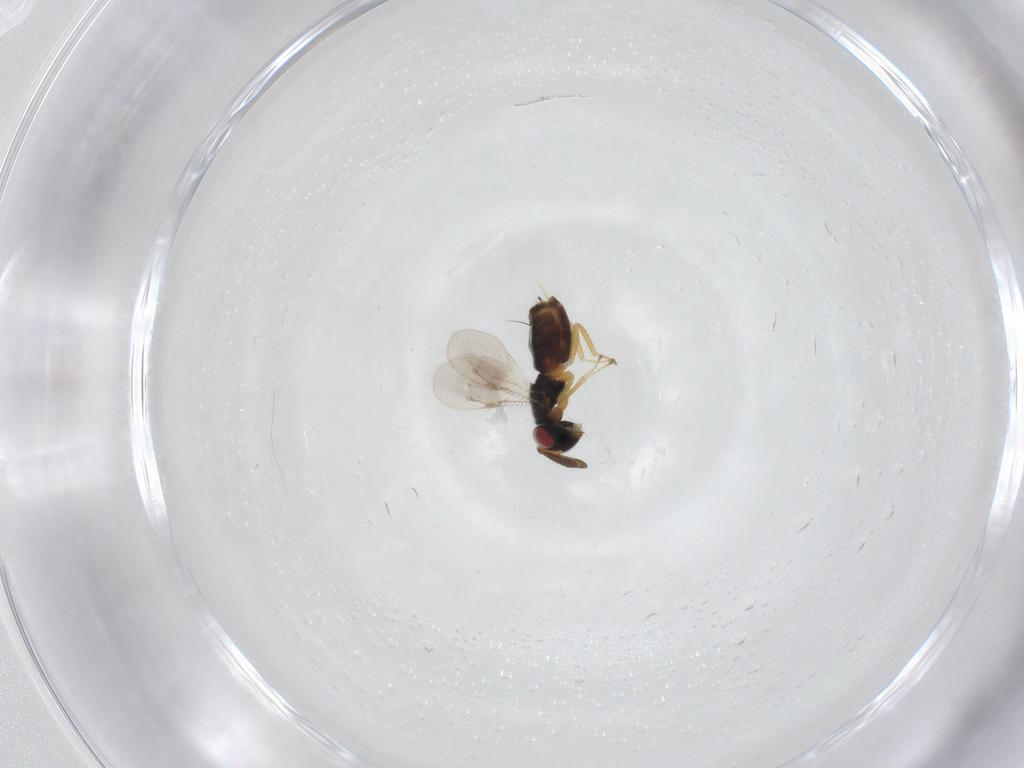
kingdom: Animalia
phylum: Arthropoda
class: Insecta
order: Hymenoptera
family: Pteromalidae
